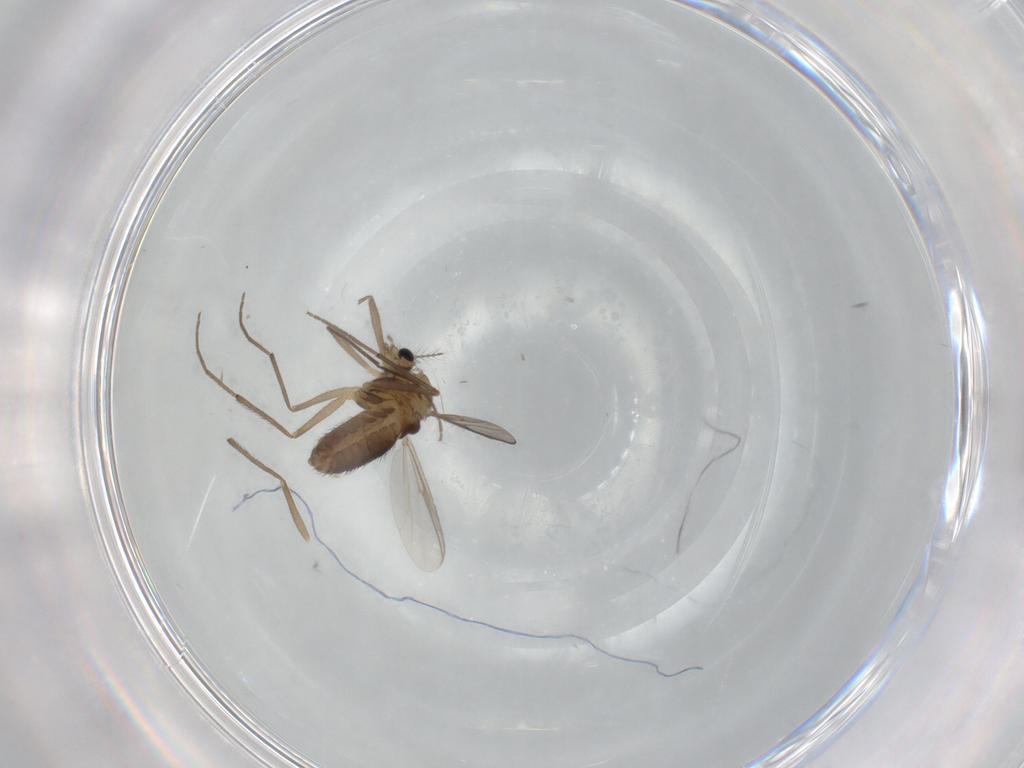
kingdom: Animalia
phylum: Arthropoda
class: Insecta
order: Diptera
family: Chironomidae
